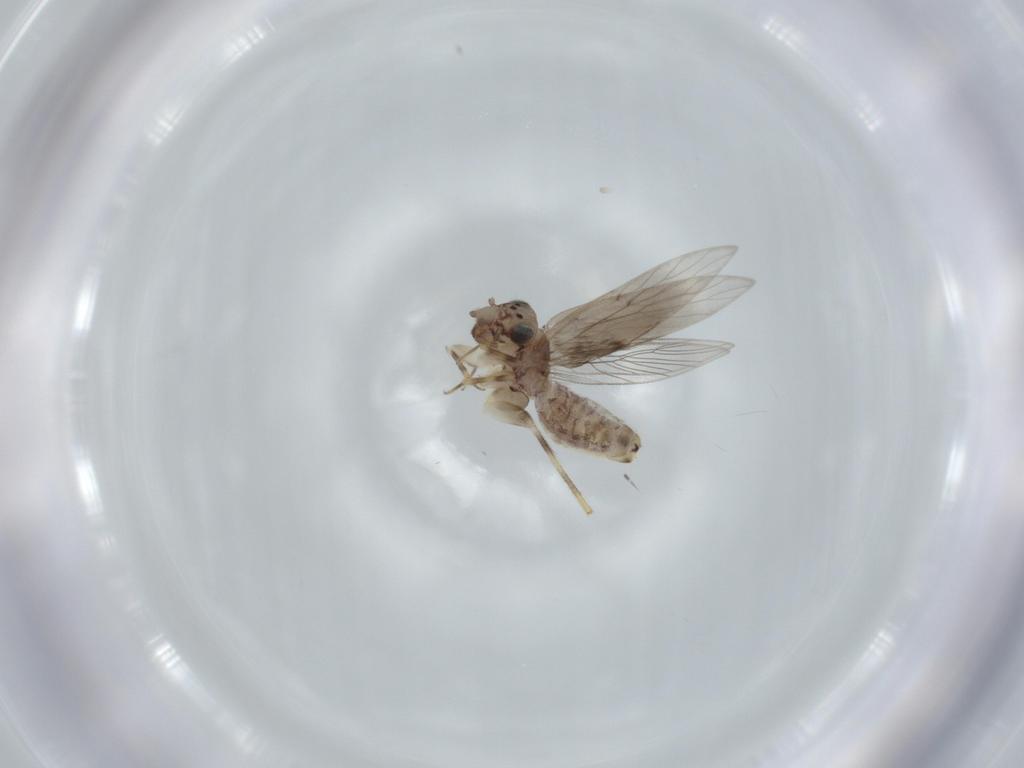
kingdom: Animalia
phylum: Arthropoda
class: Insecta
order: Psocodea
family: Lepidopsocidae
